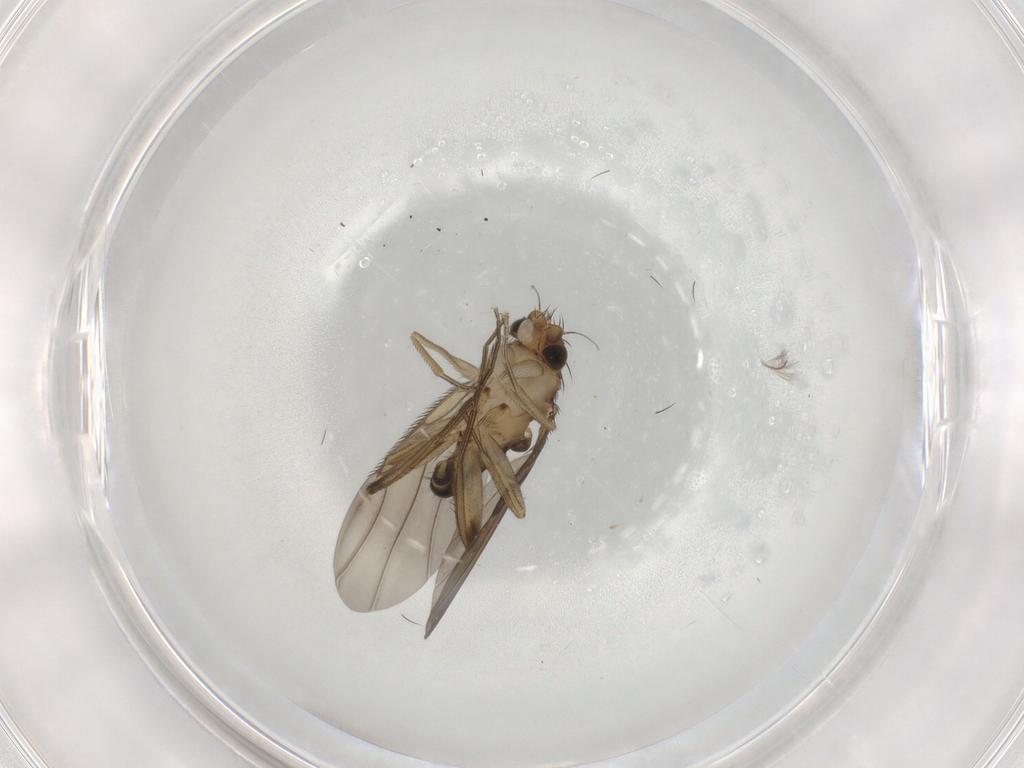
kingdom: Animalia
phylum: Arthropoda
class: Insecta
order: Diptera
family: Phoridae
